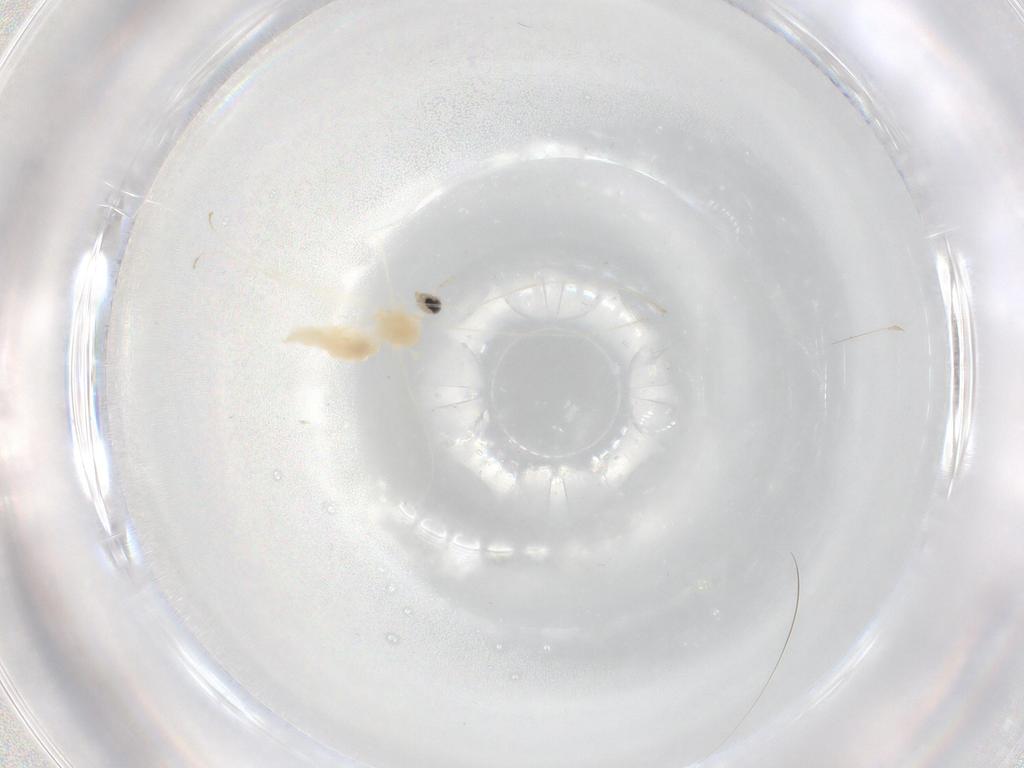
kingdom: Animalia
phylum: Arthropoda
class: Insecta
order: Diptera
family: Cecidomyiidae
